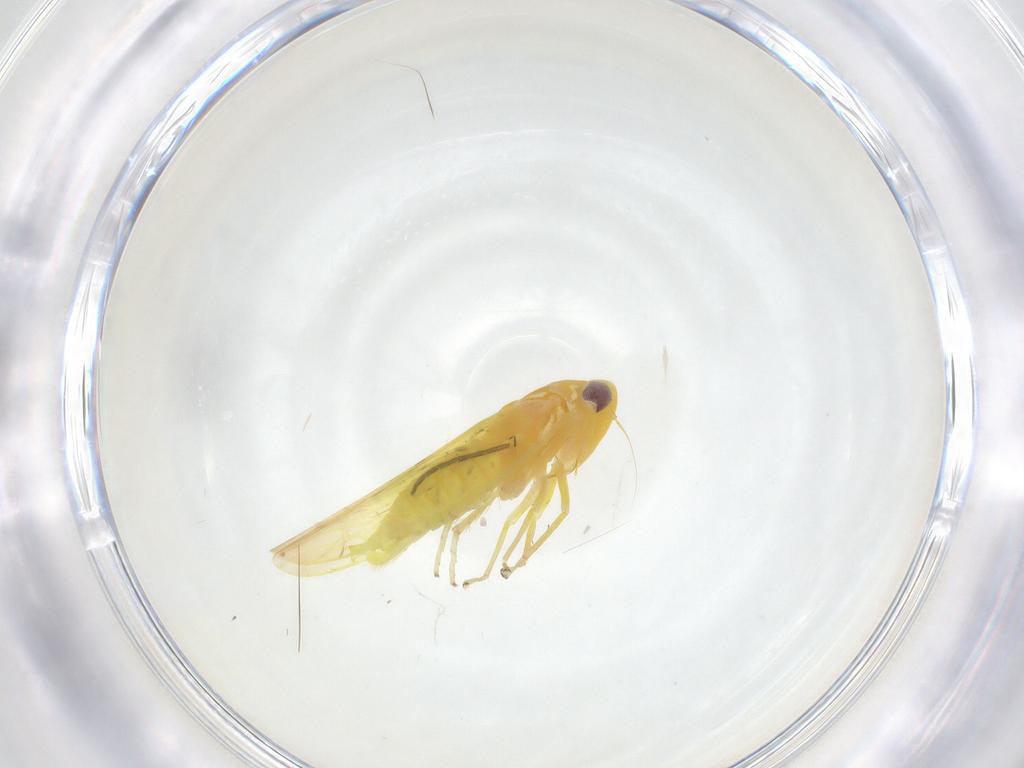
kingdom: Animalia
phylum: Arthropoda
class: Insecta
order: Hemiptera
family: Cicadellidae
